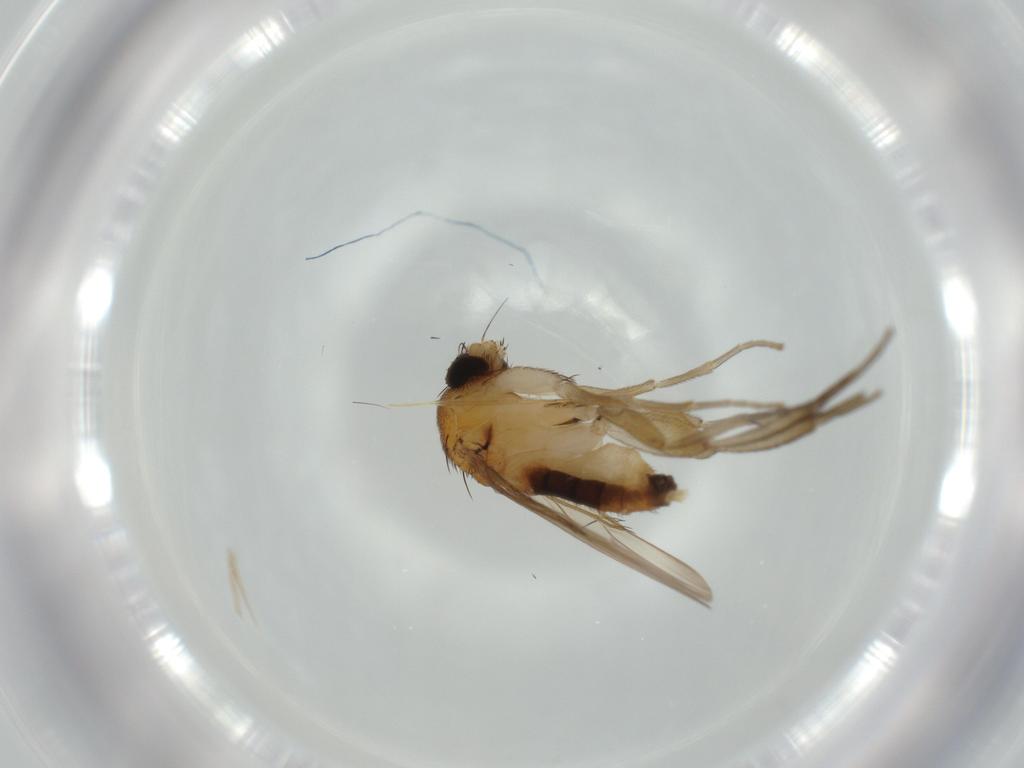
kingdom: Animalia
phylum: Arthropoda
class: Insecta
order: Diptera
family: Phoridae
